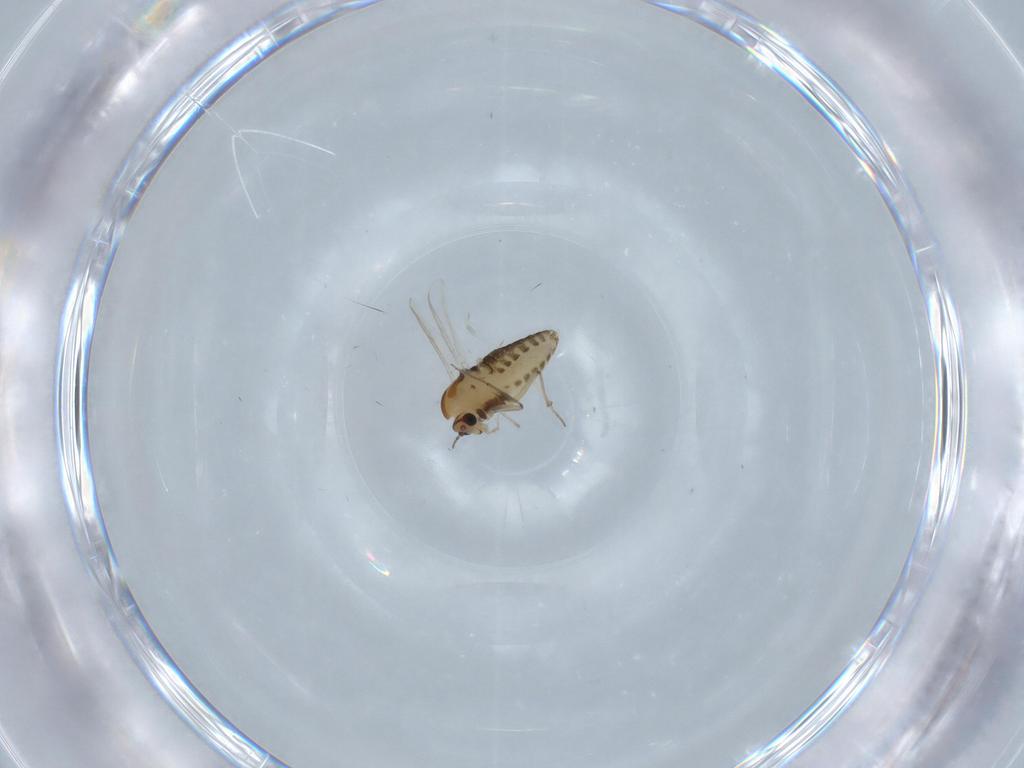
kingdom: Animalia
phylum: Arthropoda
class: Insecta
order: Diptera
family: Chironomidae
